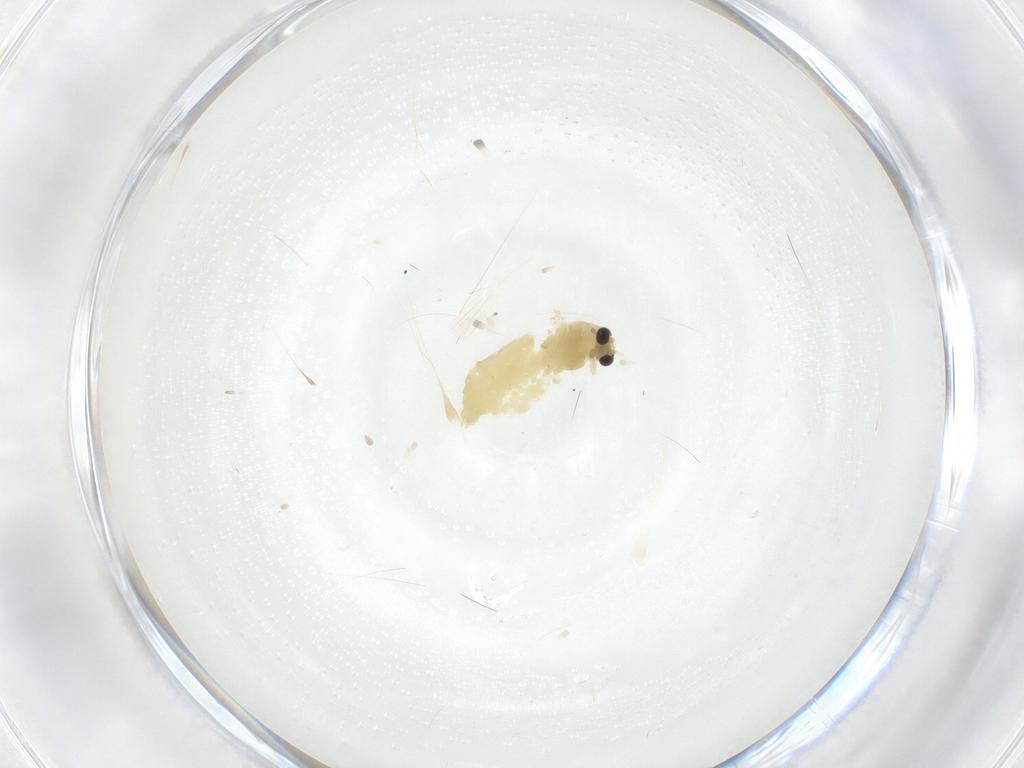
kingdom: Animalia
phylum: Arthropoda
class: Insecta
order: Diptera
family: Chironomidae
